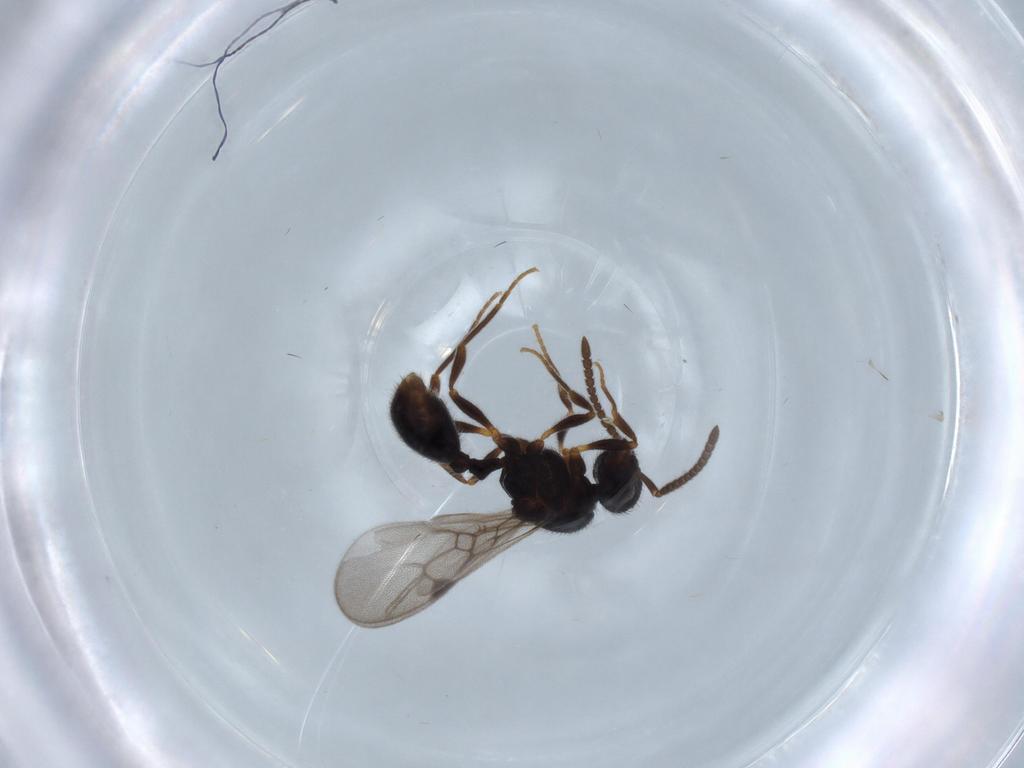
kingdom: Animalia
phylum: Arthropoda
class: Insecta
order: Hymenoptera
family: Formicidae
